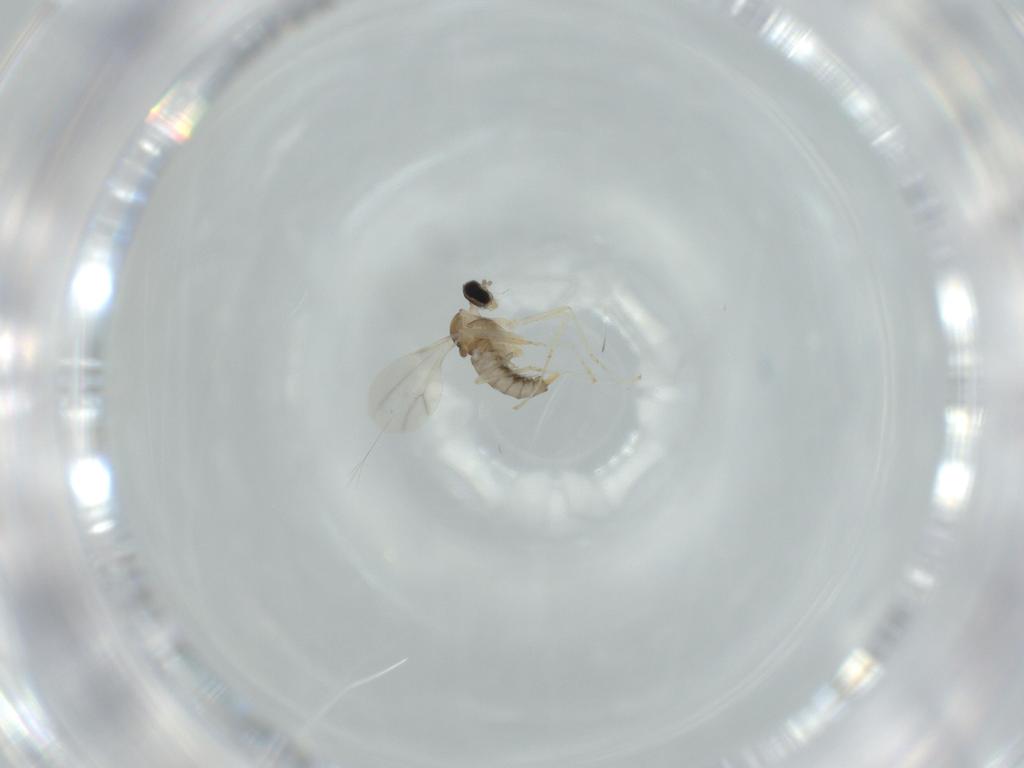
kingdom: Animalia
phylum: Arthropoda
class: Insecta
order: Diptera
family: Cecidomyiidae
